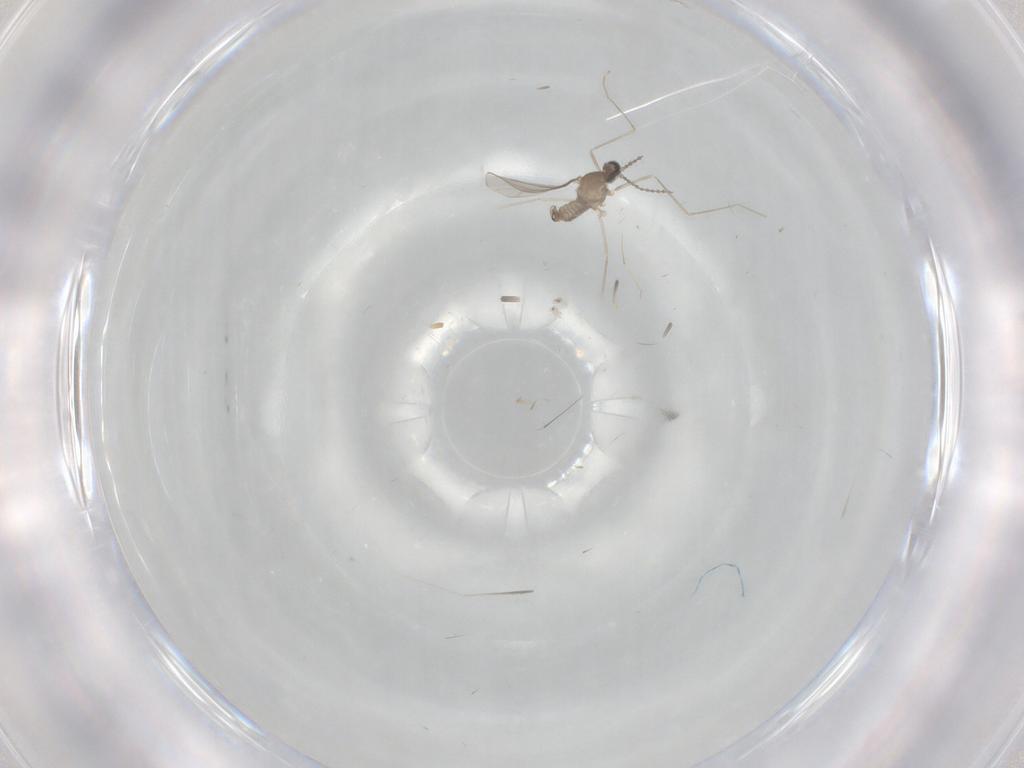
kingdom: Animalia
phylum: Arthropoda
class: Insecta
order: Diptera
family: Cecidomyiidae
